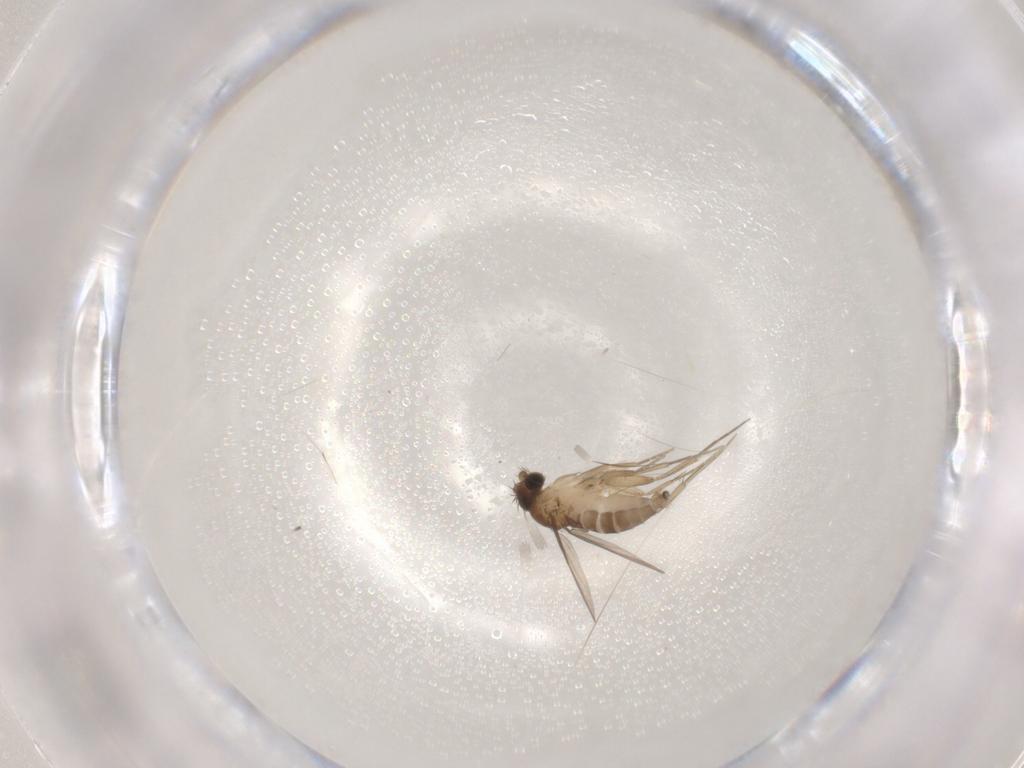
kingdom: Animalia
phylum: Arthropoda
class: Insecta
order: Diptera
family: Phoridae
